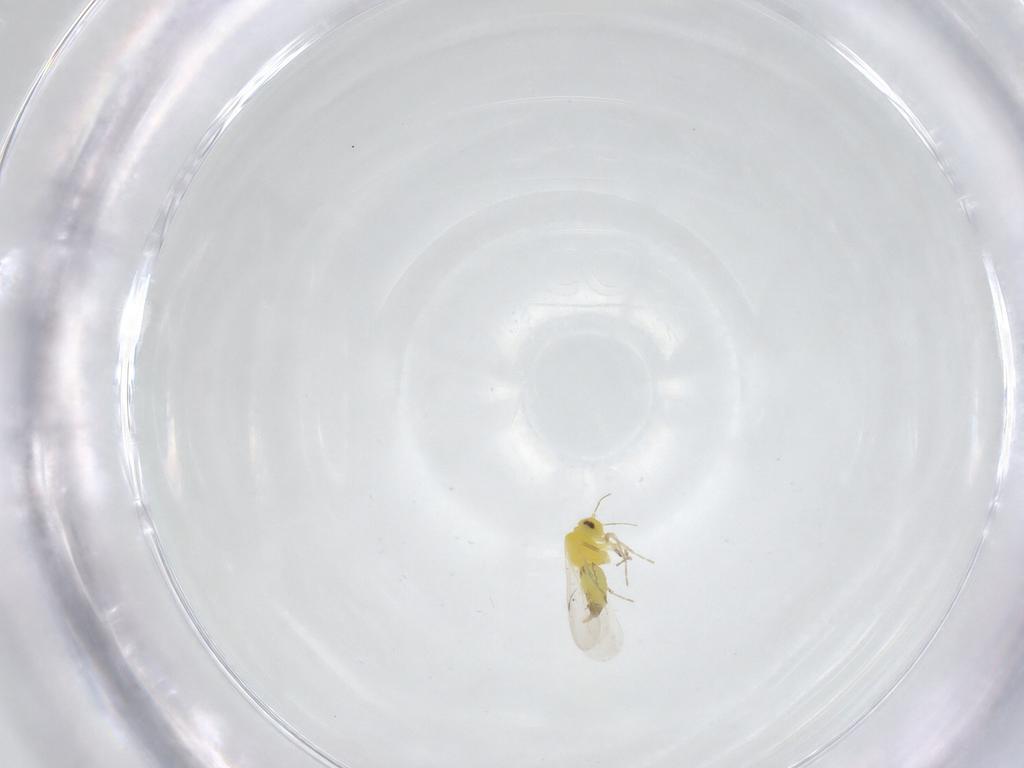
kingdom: Animalia
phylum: Arthropoda
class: Insecta
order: Hemiptera
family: Aleyrodidae
